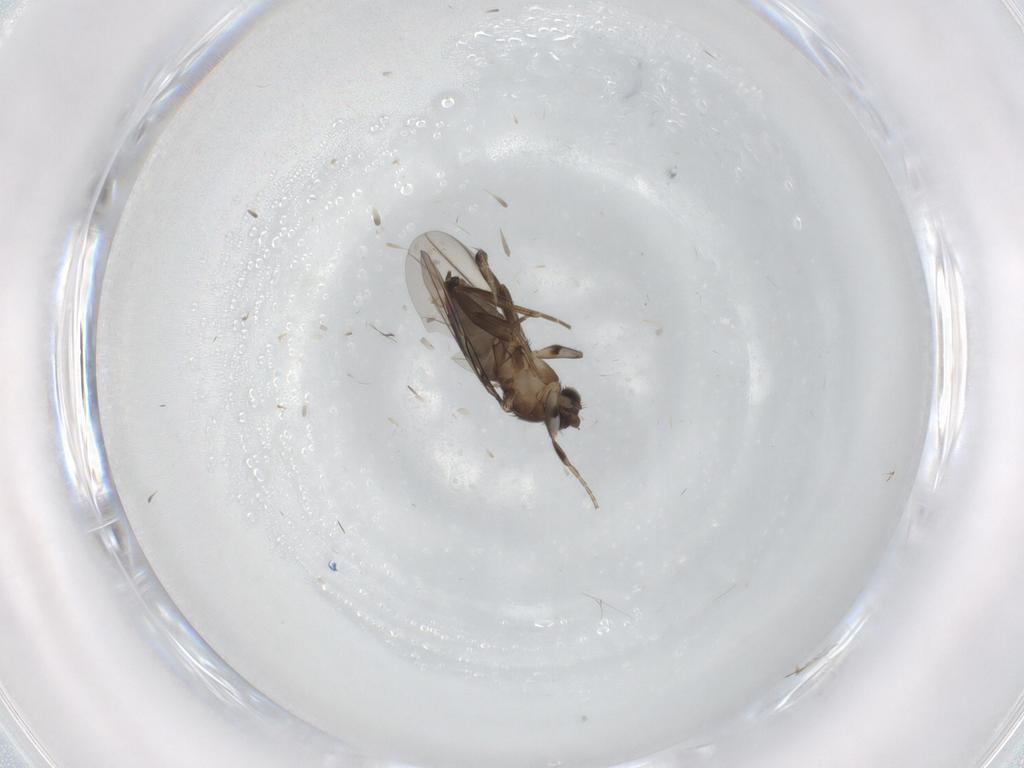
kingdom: Animalia
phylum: Arthropoda
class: Insecta
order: Diptera
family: Phoridae
